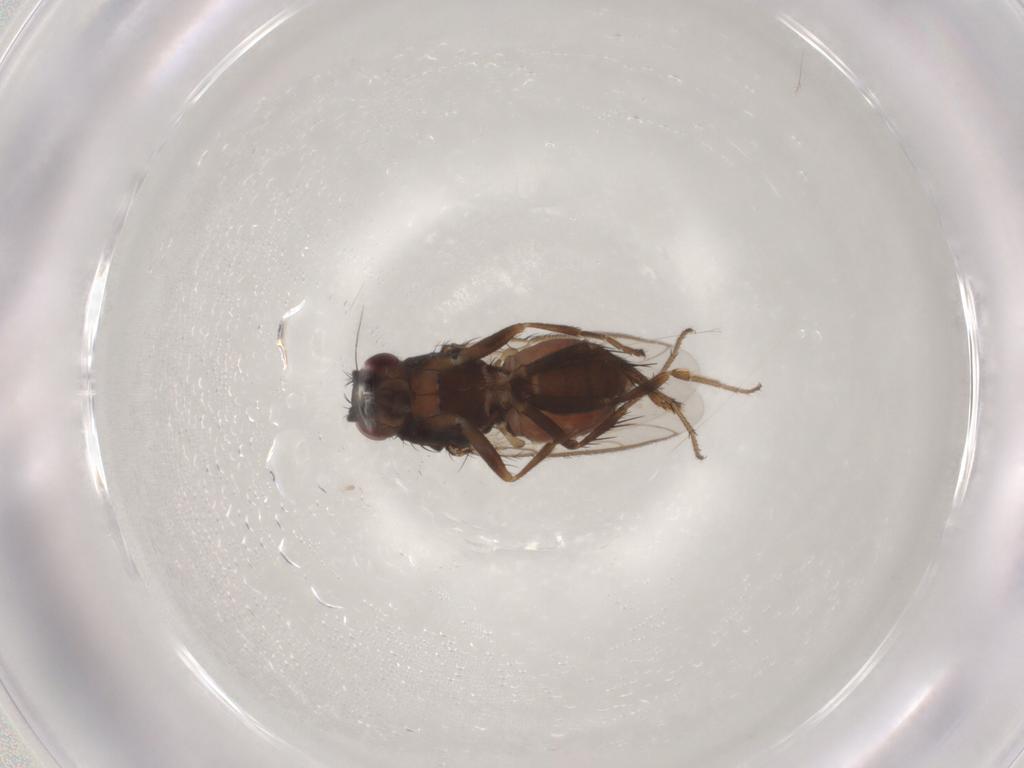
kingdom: Animalia
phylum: Arthropoda
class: Insecta
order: Diptera
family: Sphaeroceridae
